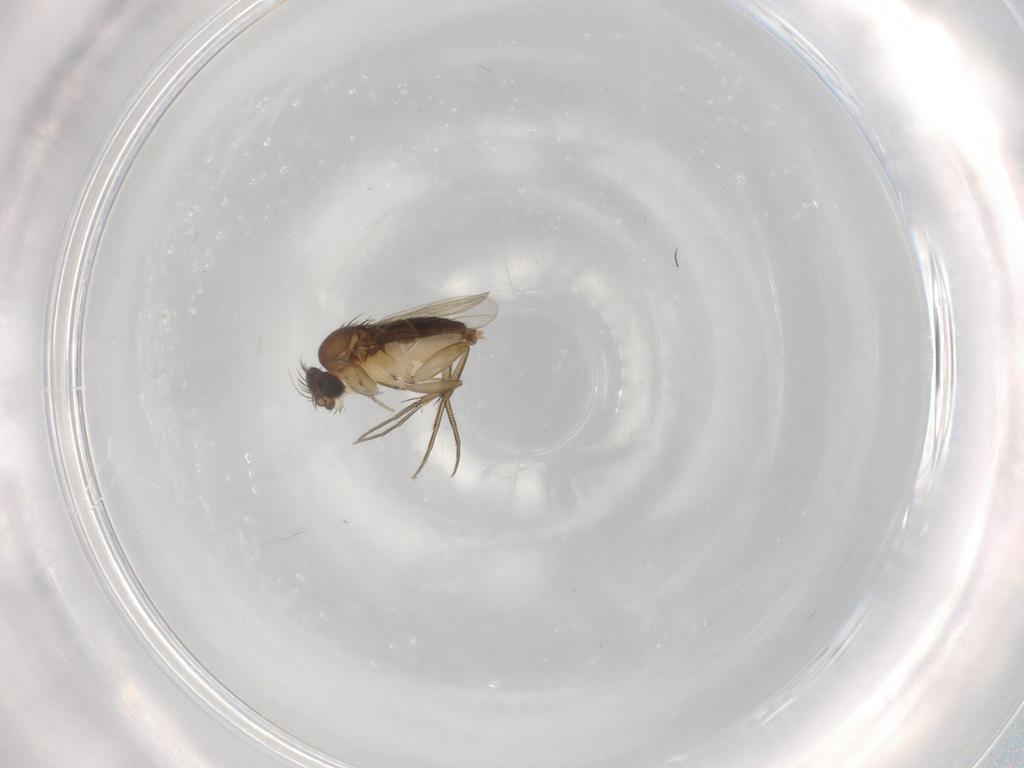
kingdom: Animalia
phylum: Arthropoda
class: Insecta
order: Diptera
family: Phoridae
